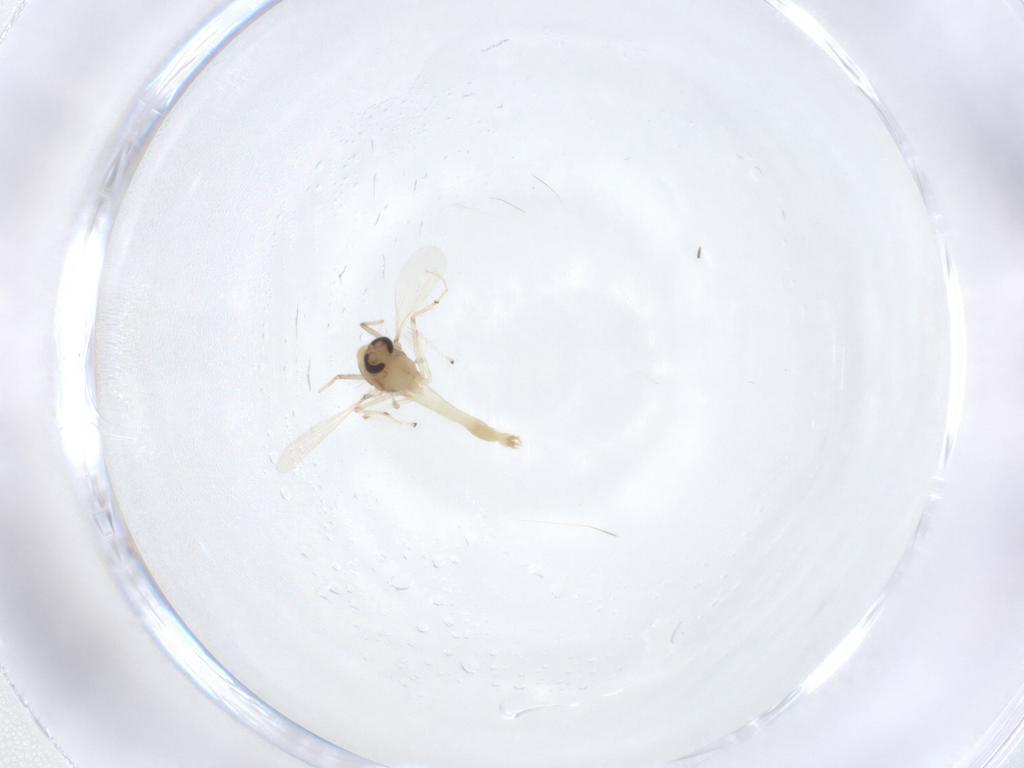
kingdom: Animalia
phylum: Arthropoda
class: Insecta
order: Diptera
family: Chironomidae
